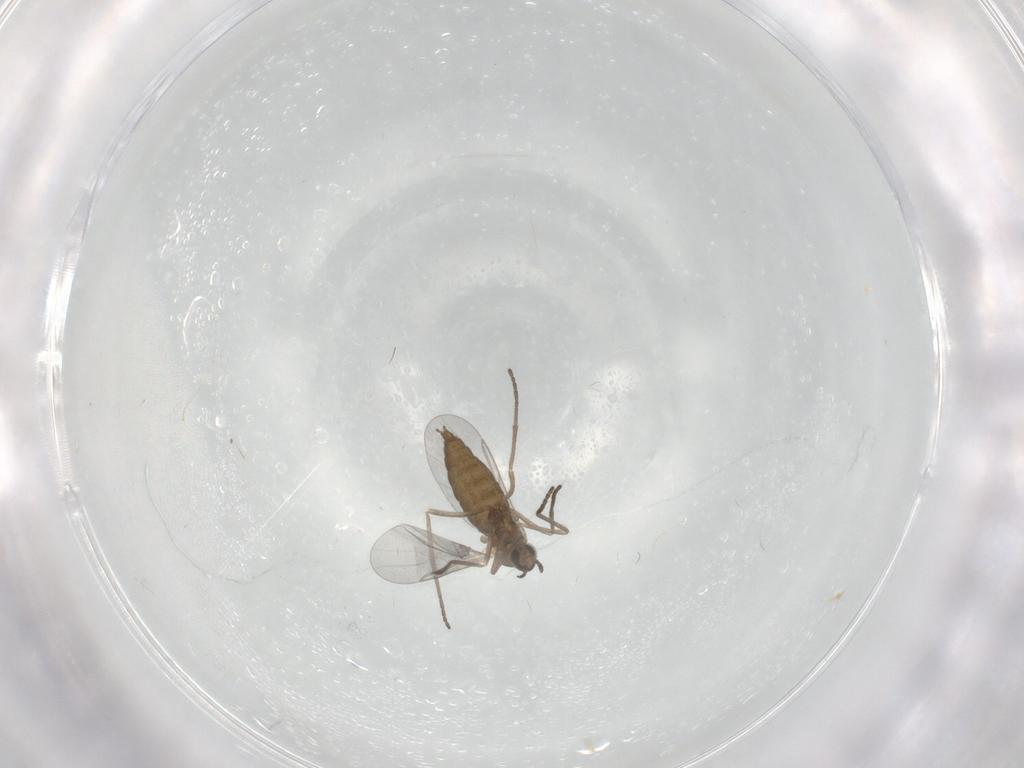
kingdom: Animalia
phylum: Arthropoda
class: Insecta
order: Diptera
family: Cecidomyiidae
